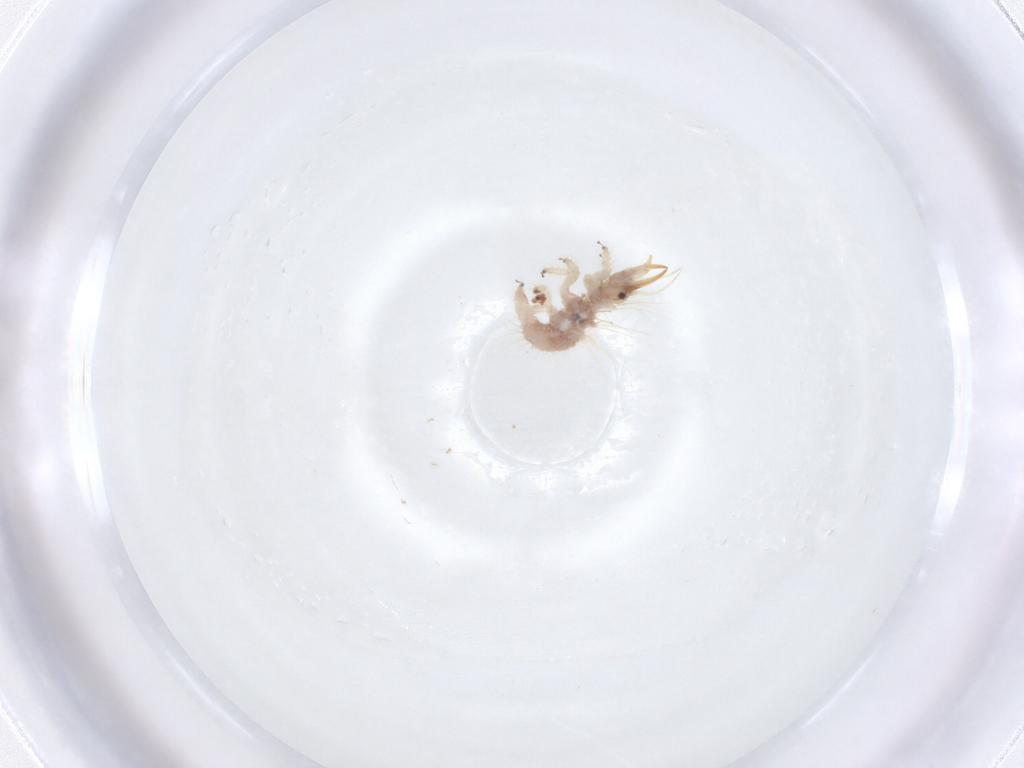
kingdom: Animalia
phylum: Arthropoda
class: Insecta
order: Neuroptera
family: Chrysopidae
